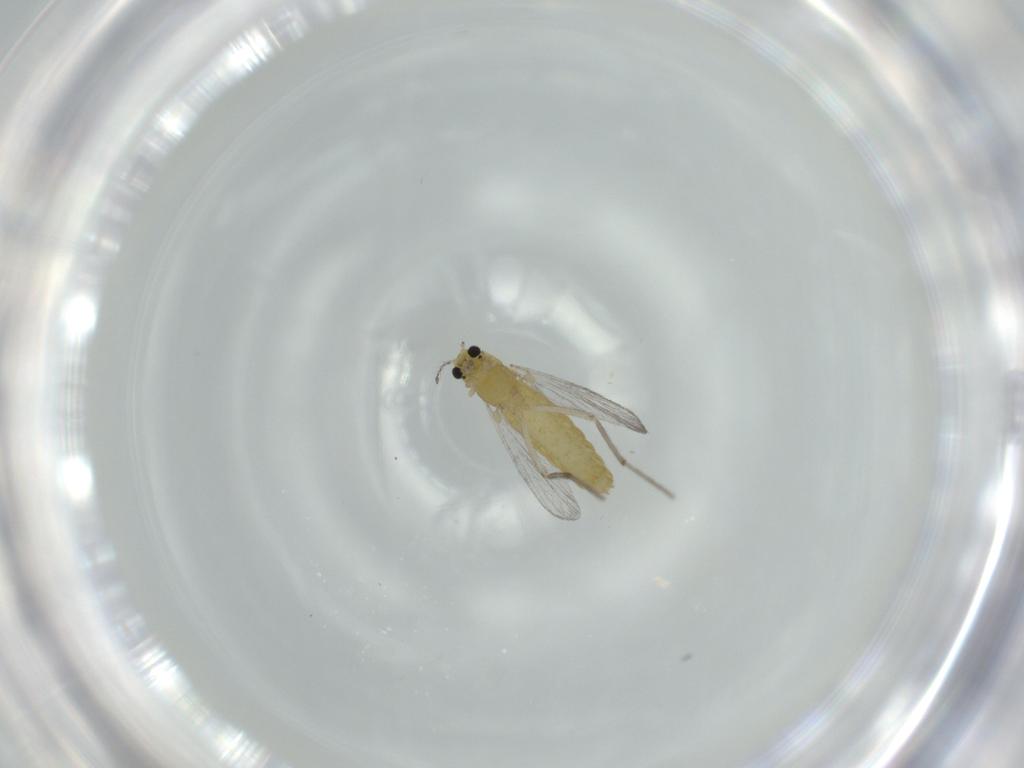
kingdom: Animalia
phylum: Arthropoda
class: Insecta
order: Diptera
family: Chironomidae
